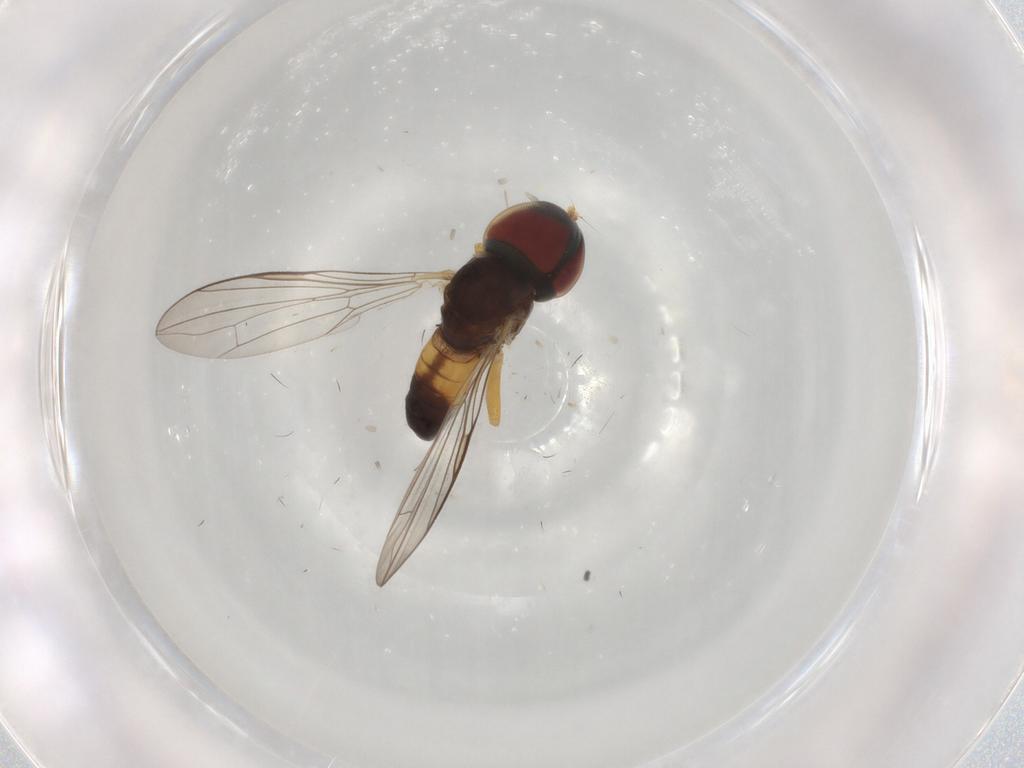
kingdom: Animalia
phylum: Arthropoda
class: Insecta
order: Diptera
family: Pipunculidae
